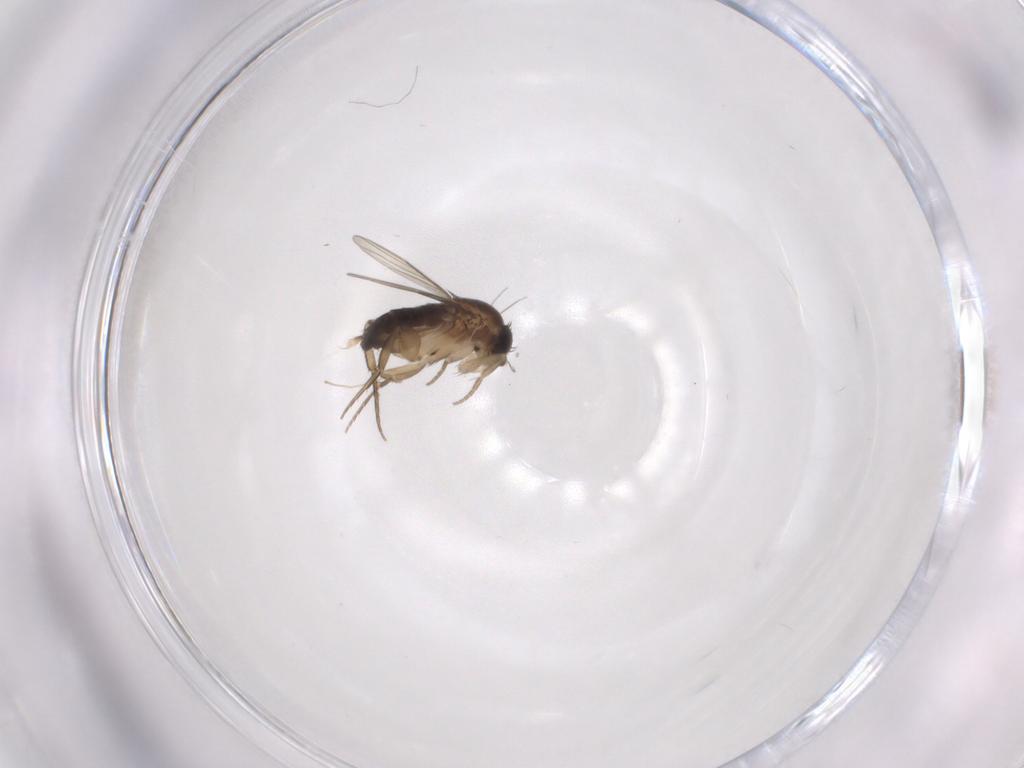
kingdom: Animalia
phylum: Arthropoda
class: Insecta
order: Diptera
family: Phoridae
